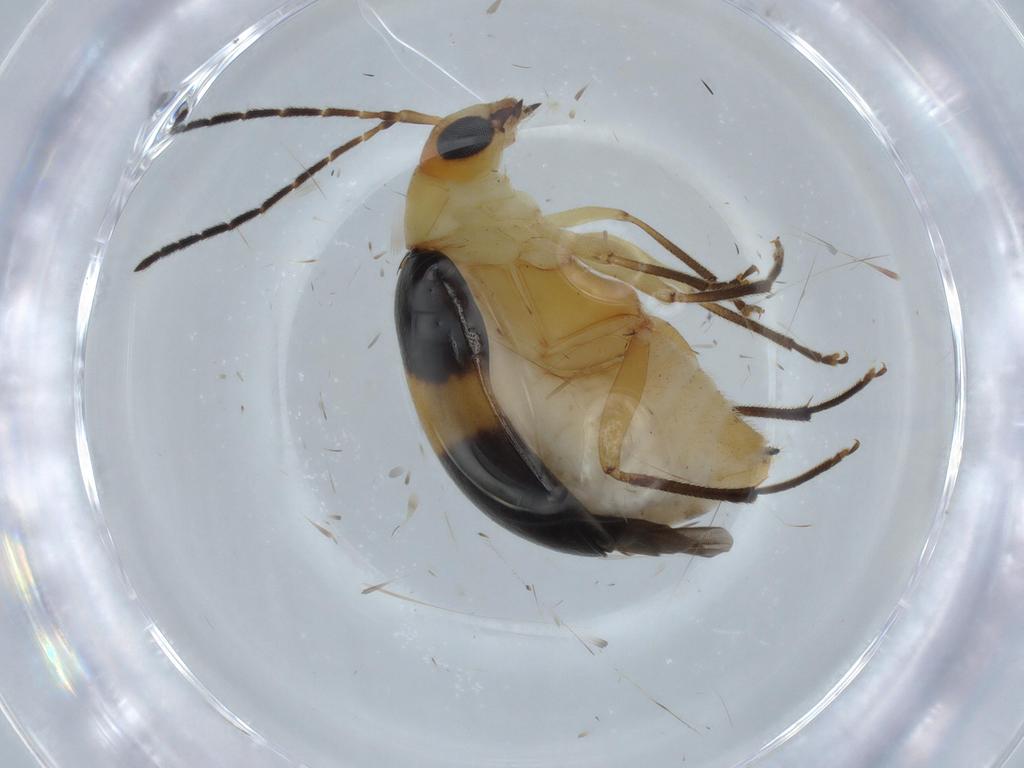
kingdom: Animalia
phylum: Arthropoda
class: Insecta
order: Coleoptera
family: Chrysomelidae
